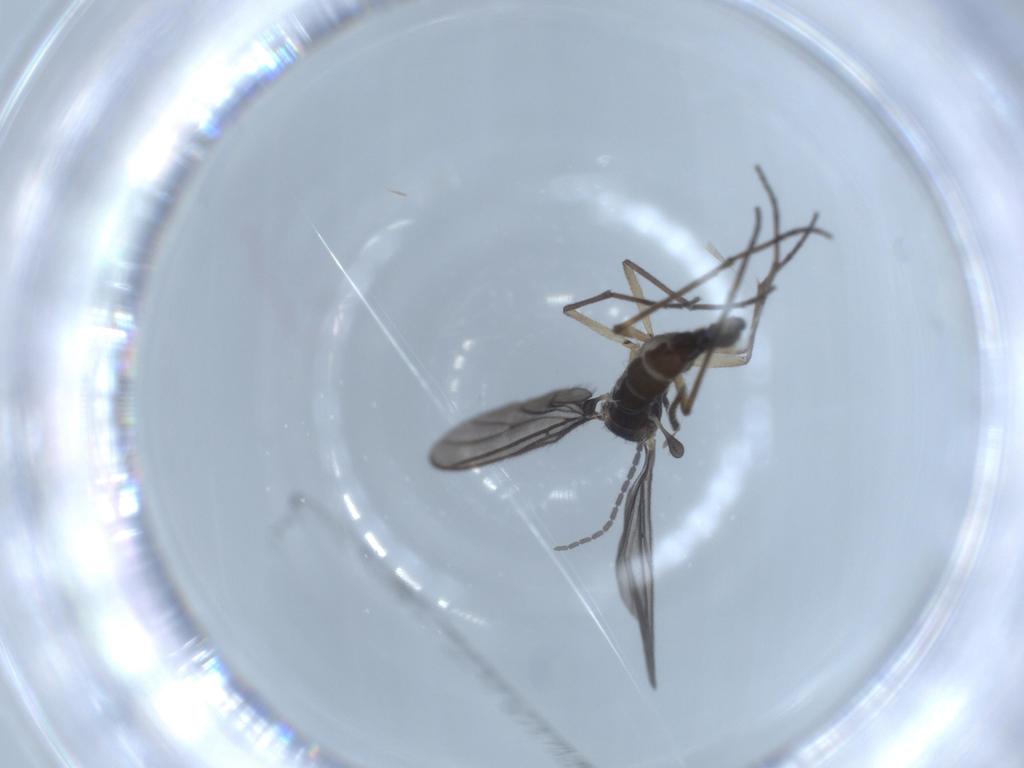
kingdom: Animalia
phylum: Arthropoda
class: Insecta
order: Diptera
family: Sciaridae
